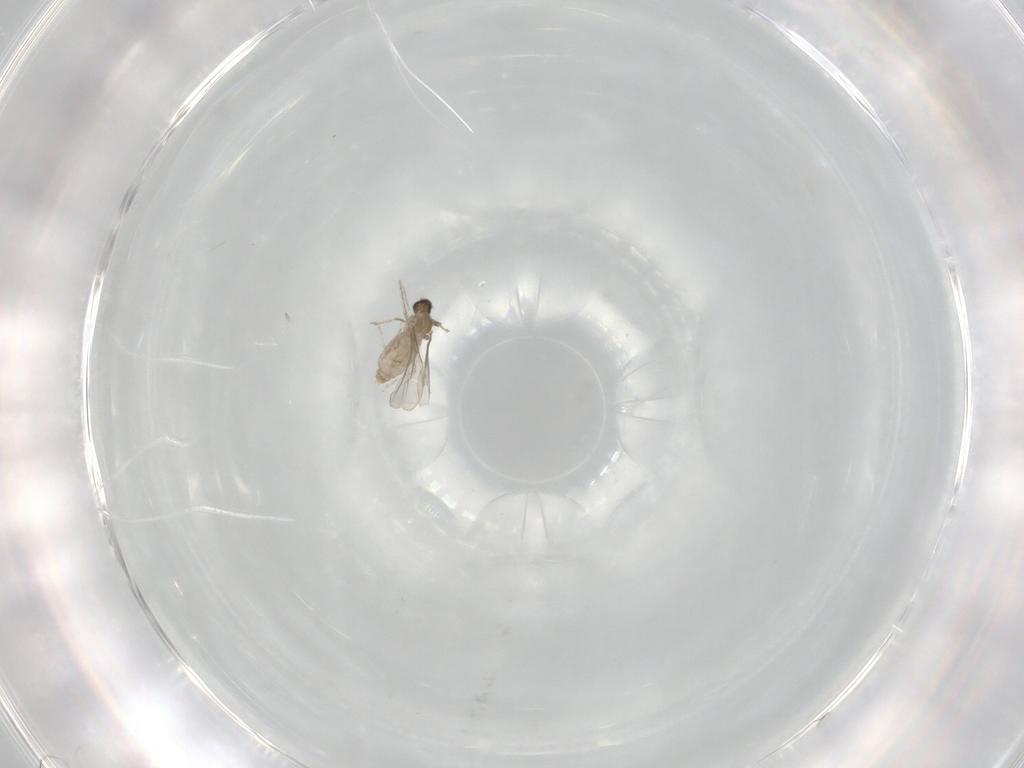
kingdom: Animalia
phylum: Arthropoda
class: Insecta
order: Diptera
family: Cecidomyiidae
